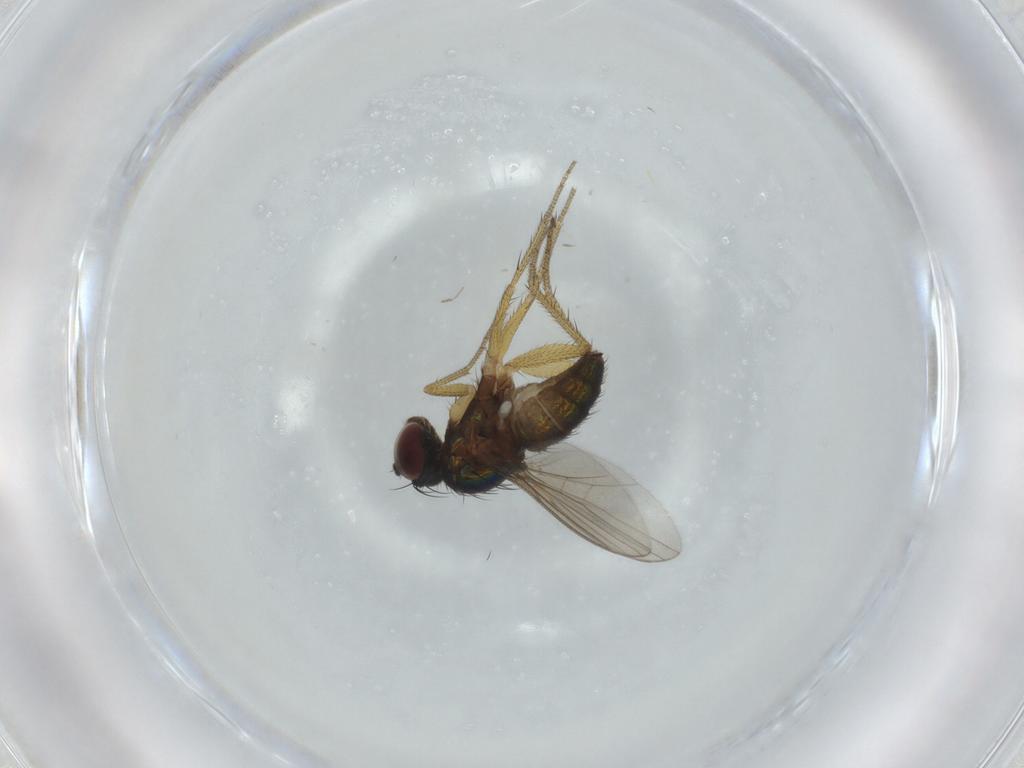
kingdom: Animalia
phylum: Arthropoda
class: Insecta
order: Diptera
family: Dolichopodidae
